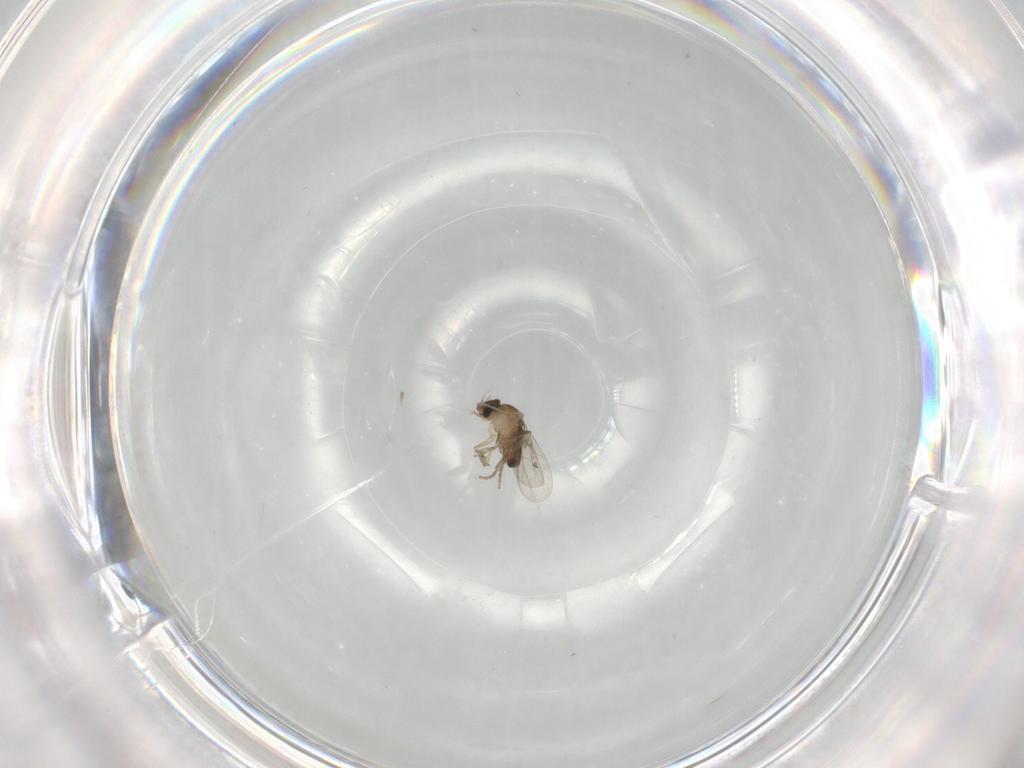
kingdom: Animalia
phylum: Arthropoda
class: Insecta
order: Diptera
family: Phoridae
